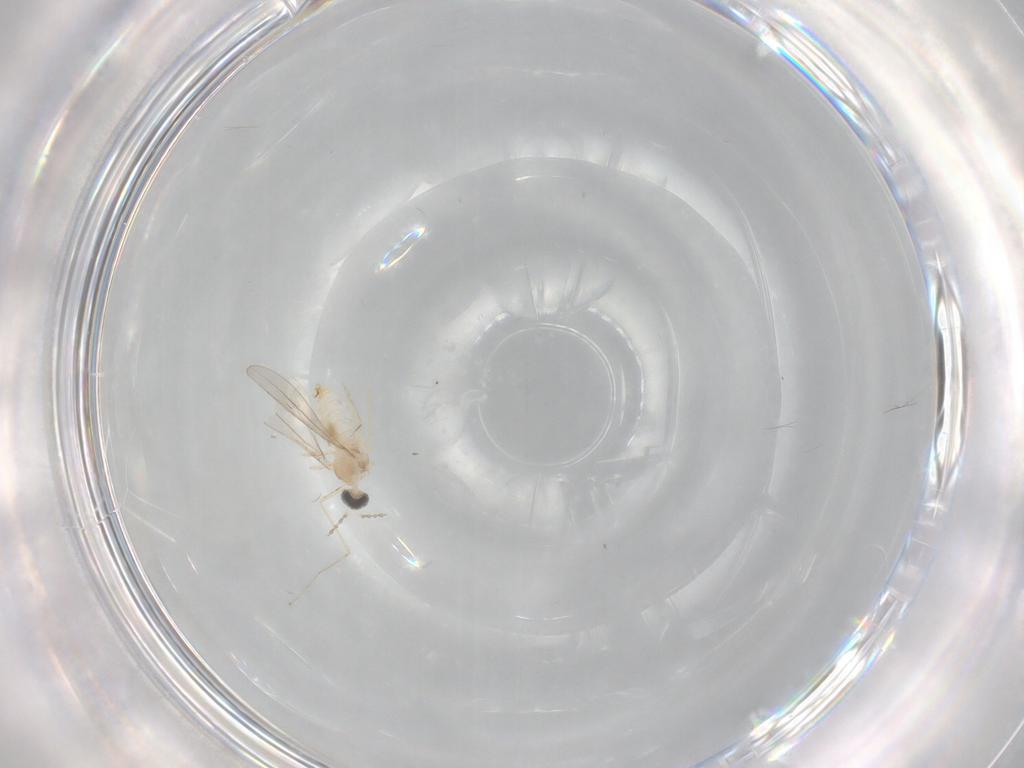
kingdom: Animalia
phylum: Arthropoda
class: Insecta
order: Diptera
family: Cecidomyiidae
